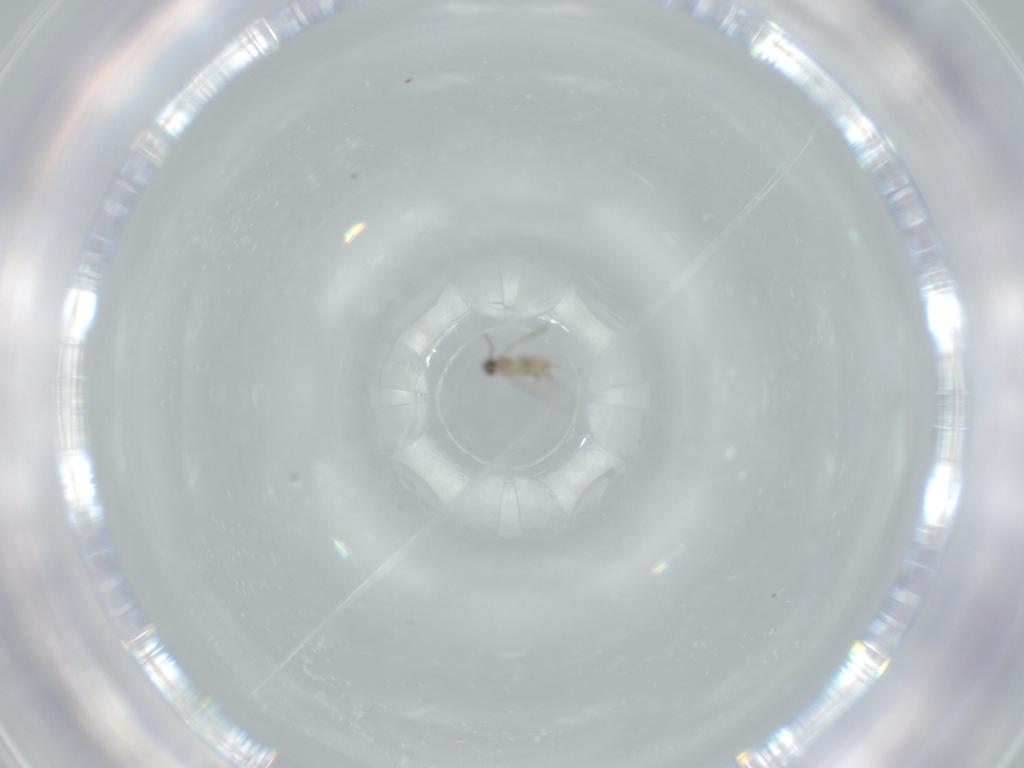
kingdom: Animalia
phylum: Arthropoda
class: Insecta
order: Diptera
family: Cecidomyiidae
